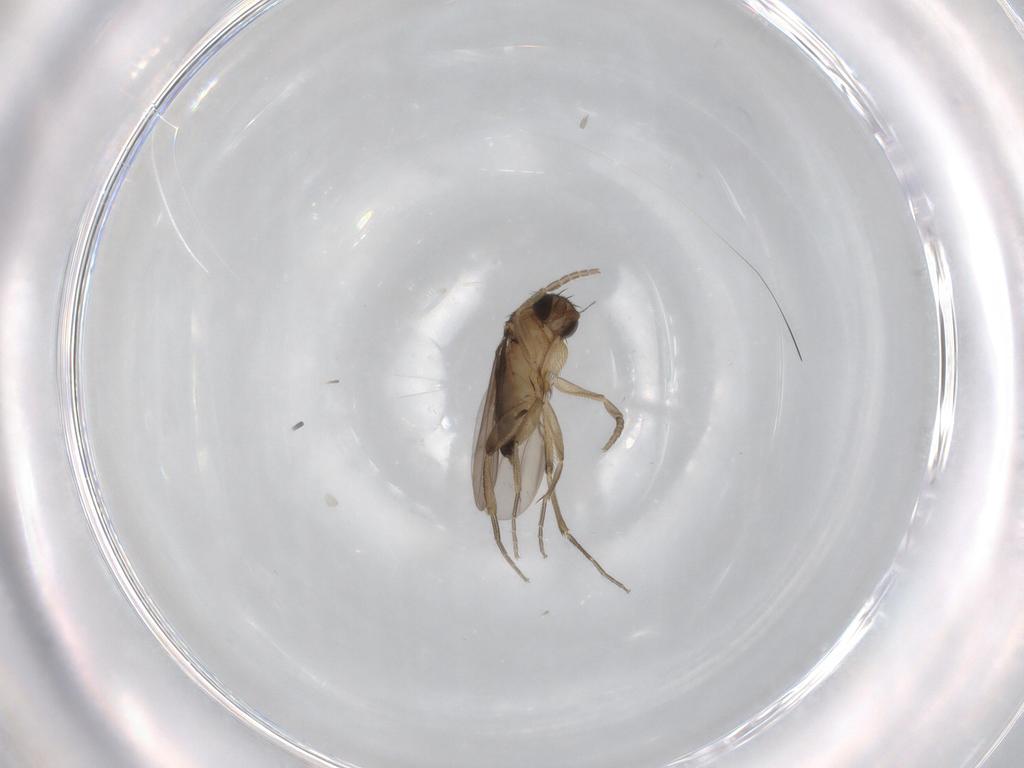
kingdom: Animalia
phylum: Arthropoda
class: Insecta
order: Diptera
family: Phoridae
